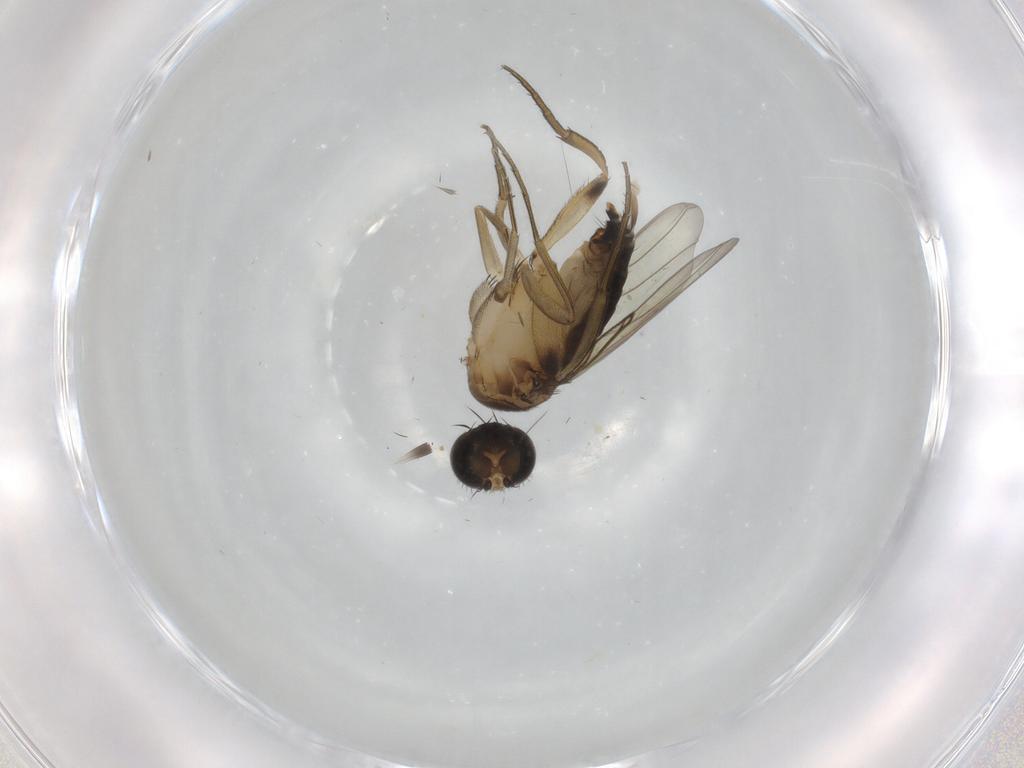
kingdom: Animalia
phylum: Arthropoda
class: Insecta
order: Diptera
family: Phoridae
